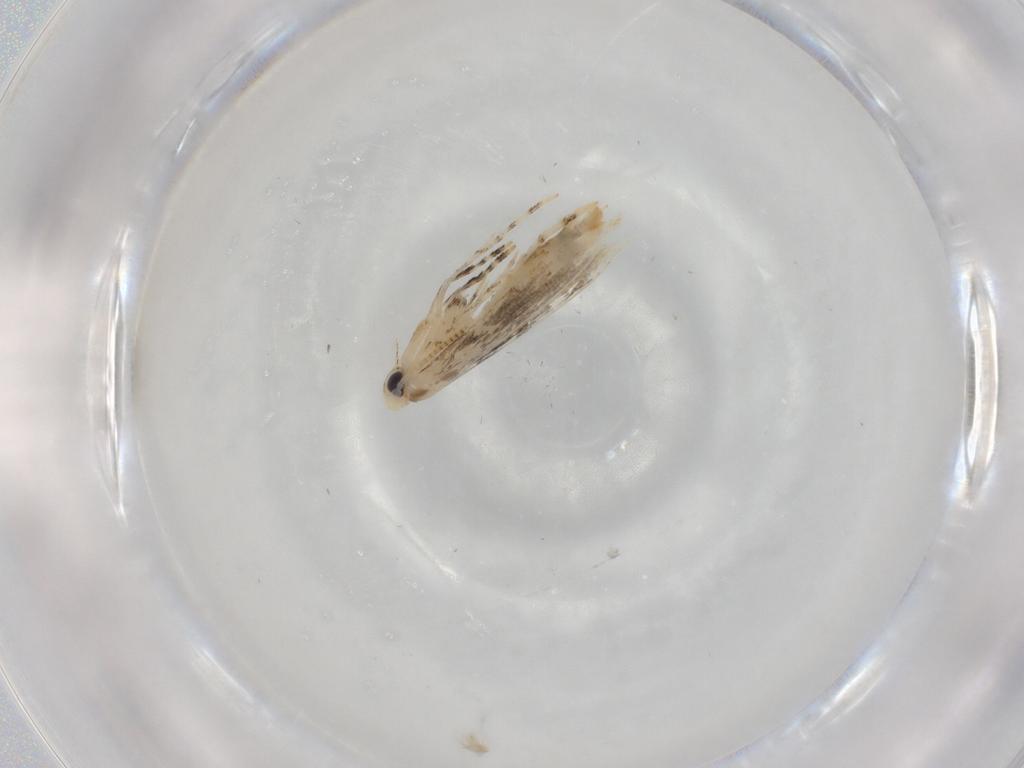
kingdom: Animalia
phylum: Arthropoda
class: Insecta
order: Lepidoptera
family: Gracillariidae
